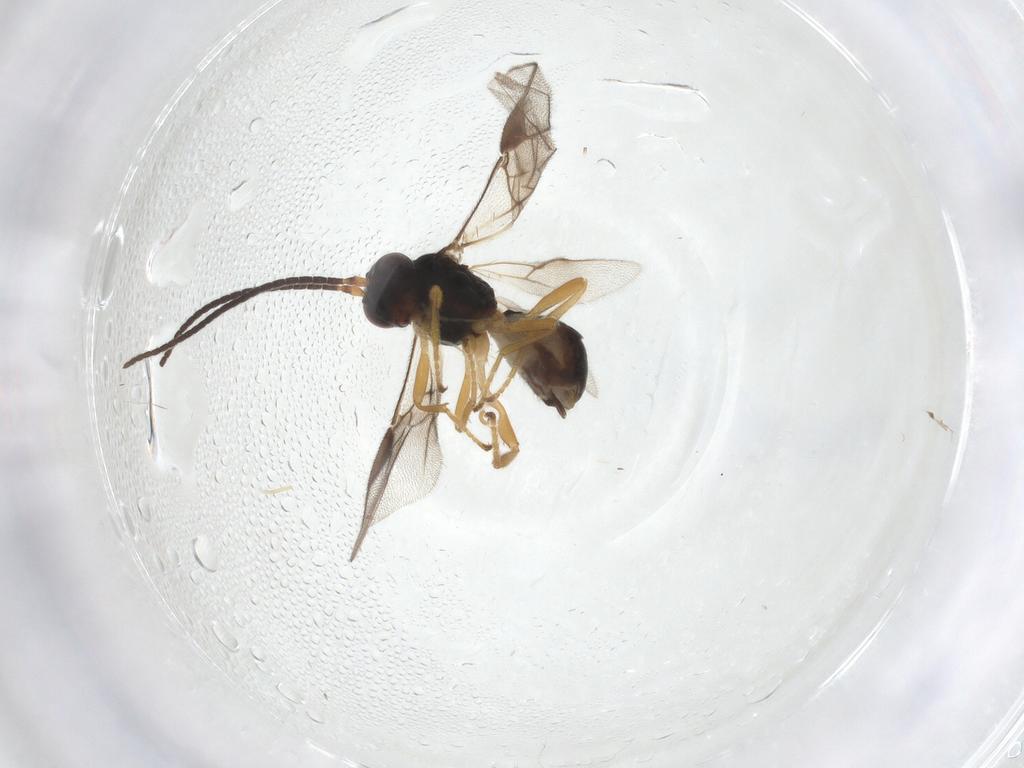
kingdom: Animalia
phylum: Arthropoda
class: Insecta
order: Hymenoptera
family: Braconidae
